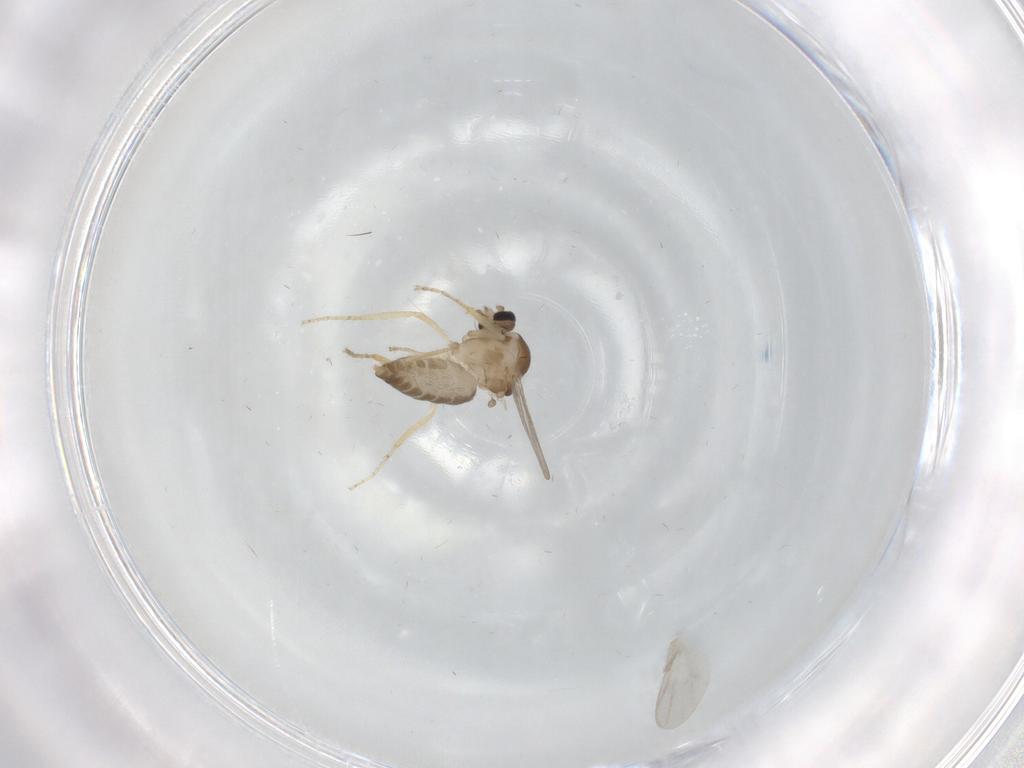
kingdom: Animalia
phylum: Arthropoda
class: Insecta
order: Diptera
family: Ceratopogonidae
